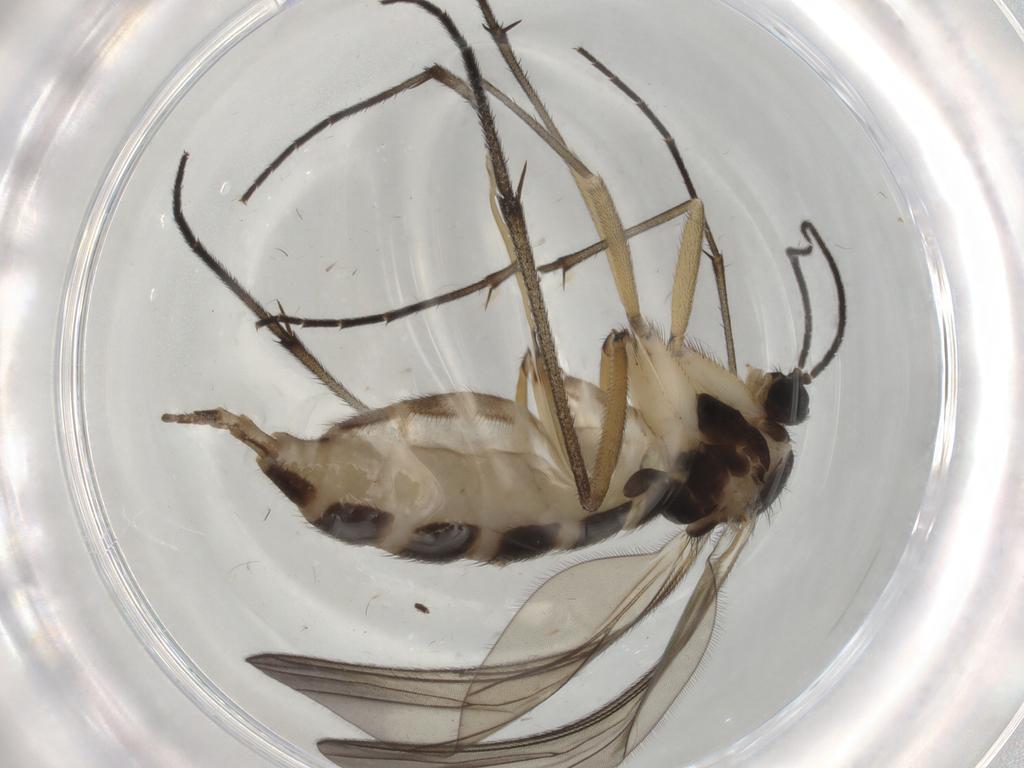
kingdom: Animalia
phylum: Arthropoda
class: Insecta
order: Diptera
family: Sciaridae
